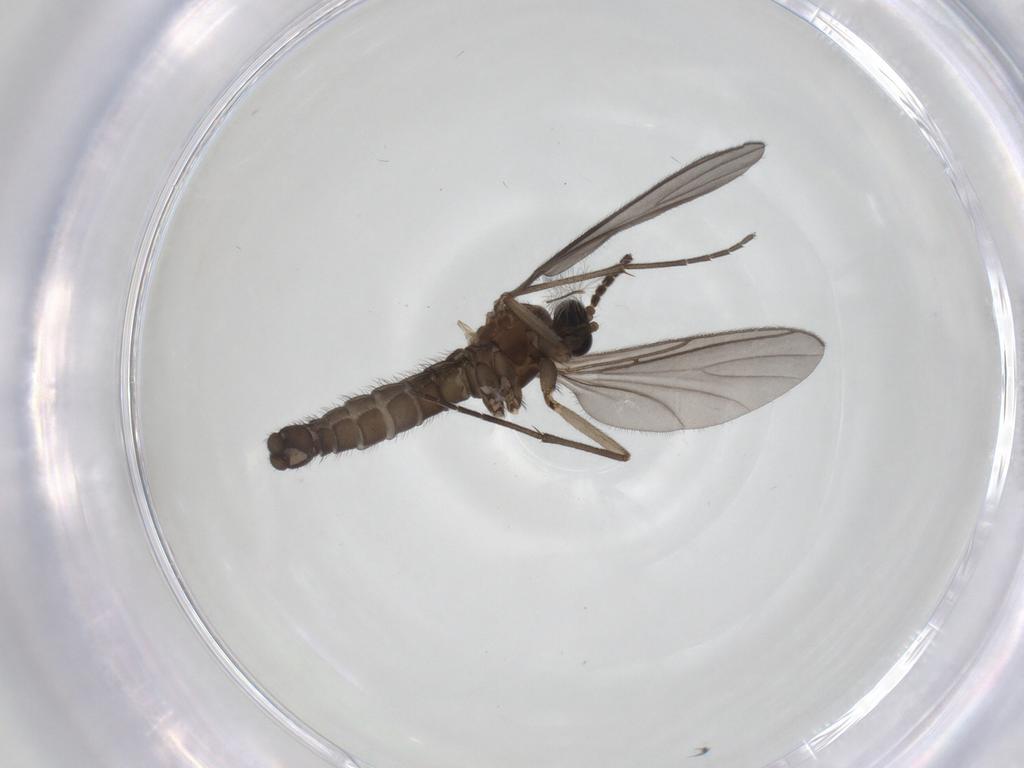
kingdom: Animalia
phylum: Arthropoda
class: Insecta
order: Diptera
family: Sciaridae
